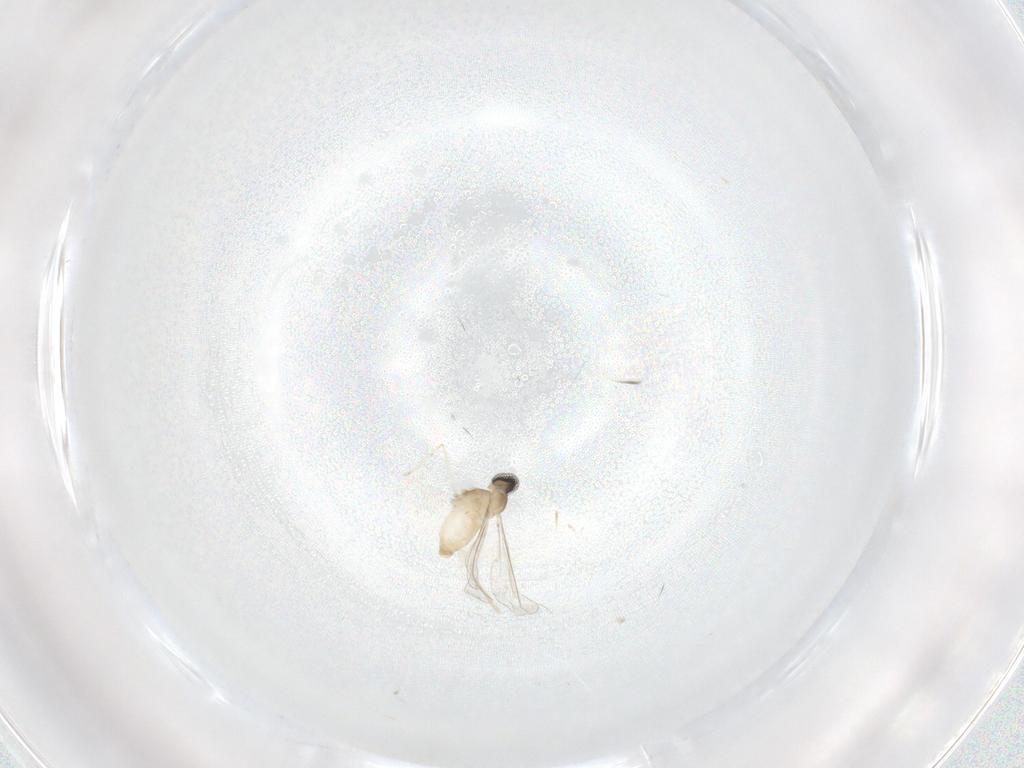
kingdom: Animalia
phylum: Arthropoda
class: Insecta
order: Diptera
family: Cecidomyiidae
